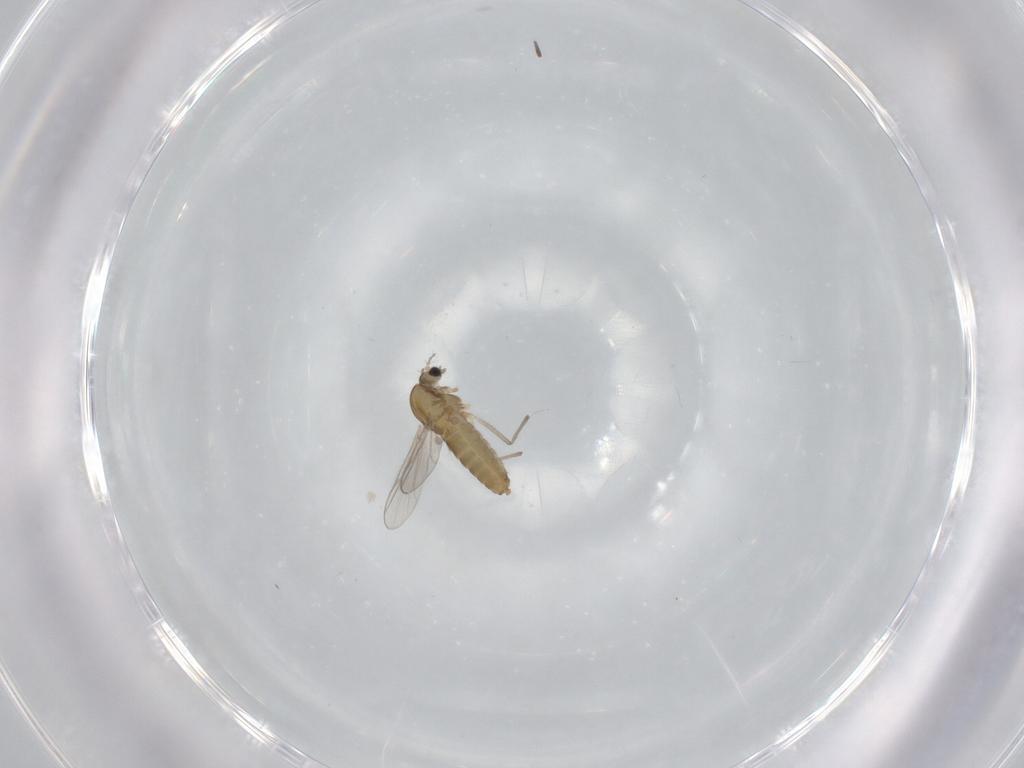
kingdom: Animalia
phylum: Arthropoda
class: Insecta
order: Diptera
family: Chironomidae
